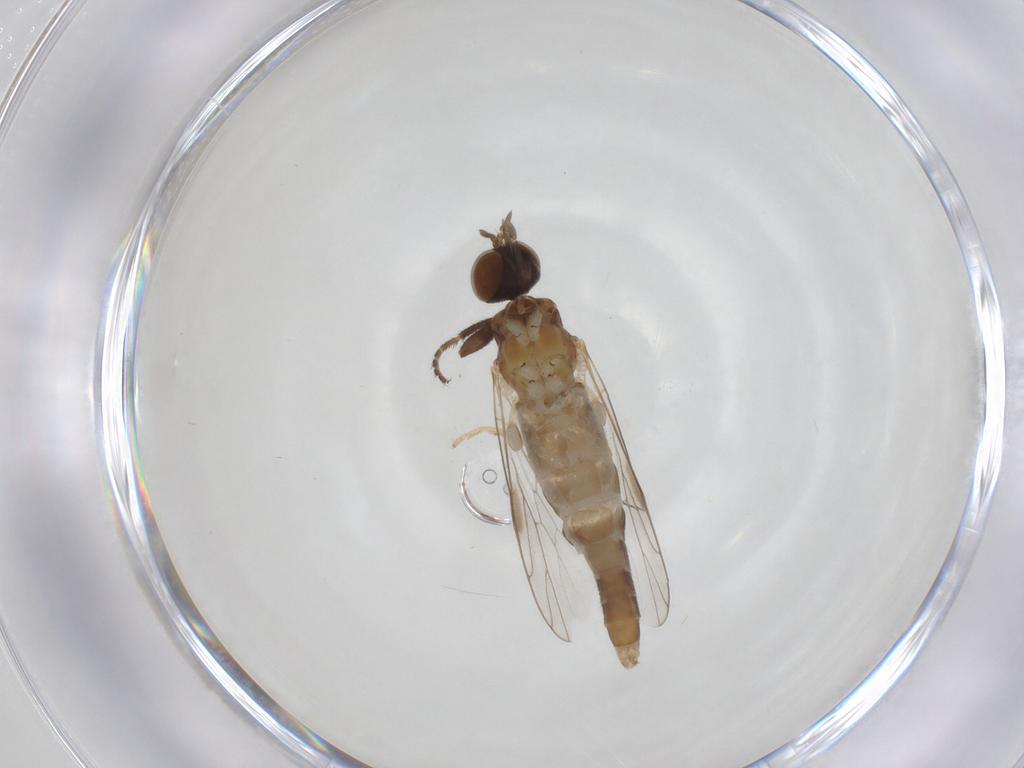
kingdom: Animalia
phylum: Arthropoda
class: Insecta
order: Diptera
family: Milichiidae
